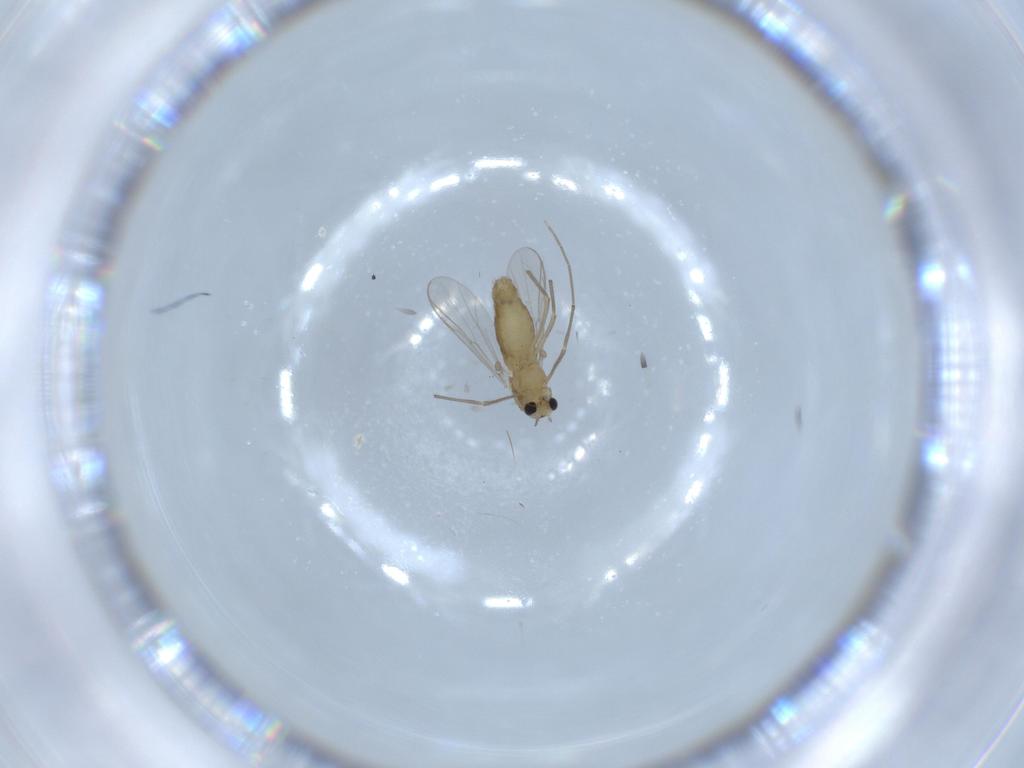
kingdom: Animalia
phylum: Arthropoda
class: Insecta
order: Diptera
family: Chironomidae
